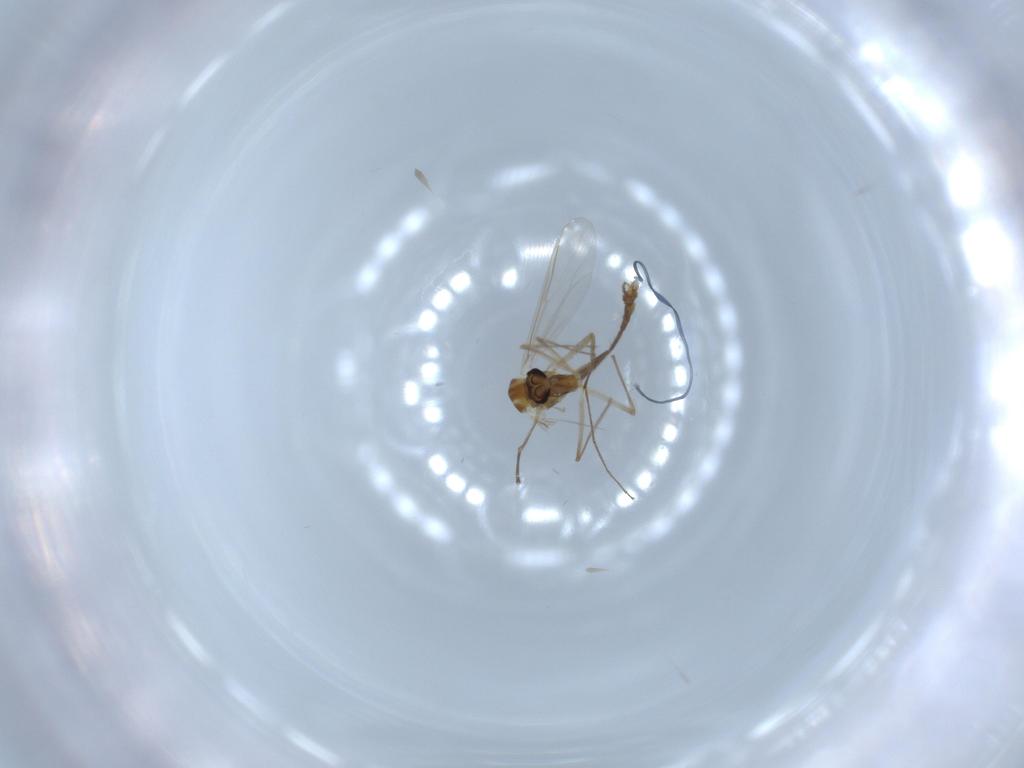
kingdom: Animalia
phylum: Arthropoda
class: Insecta
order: Diptera
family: Chironomidae
